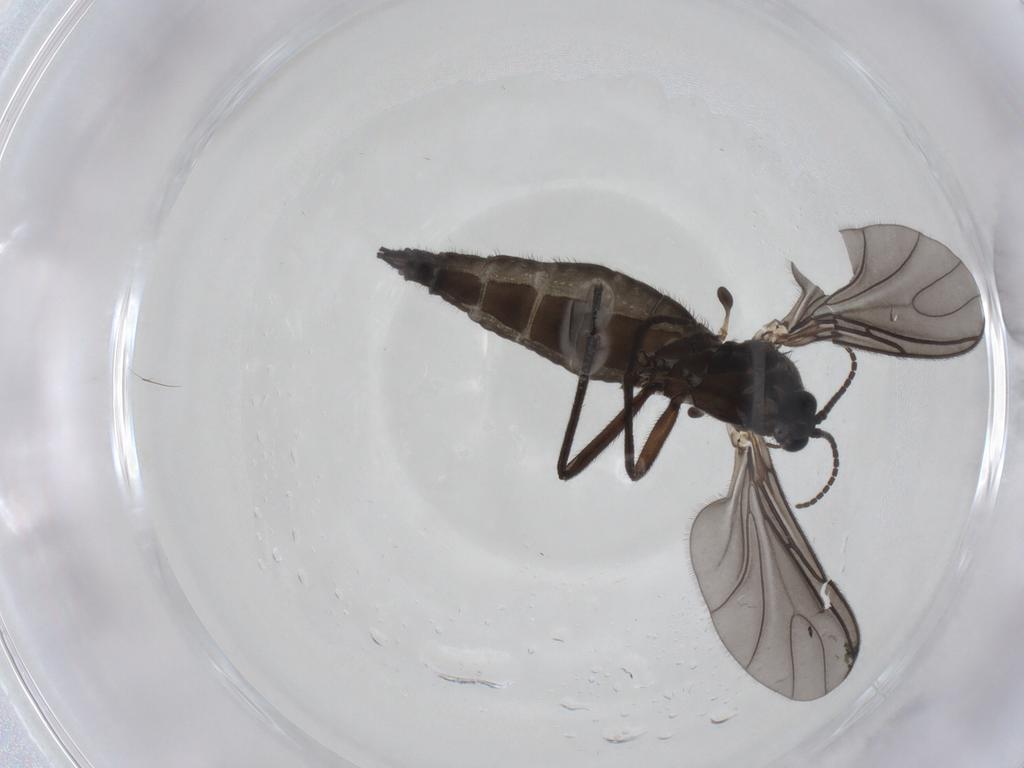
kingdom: Animalia
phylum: Arthropoda
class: Insecta
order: Diptera
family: Sciaridae
